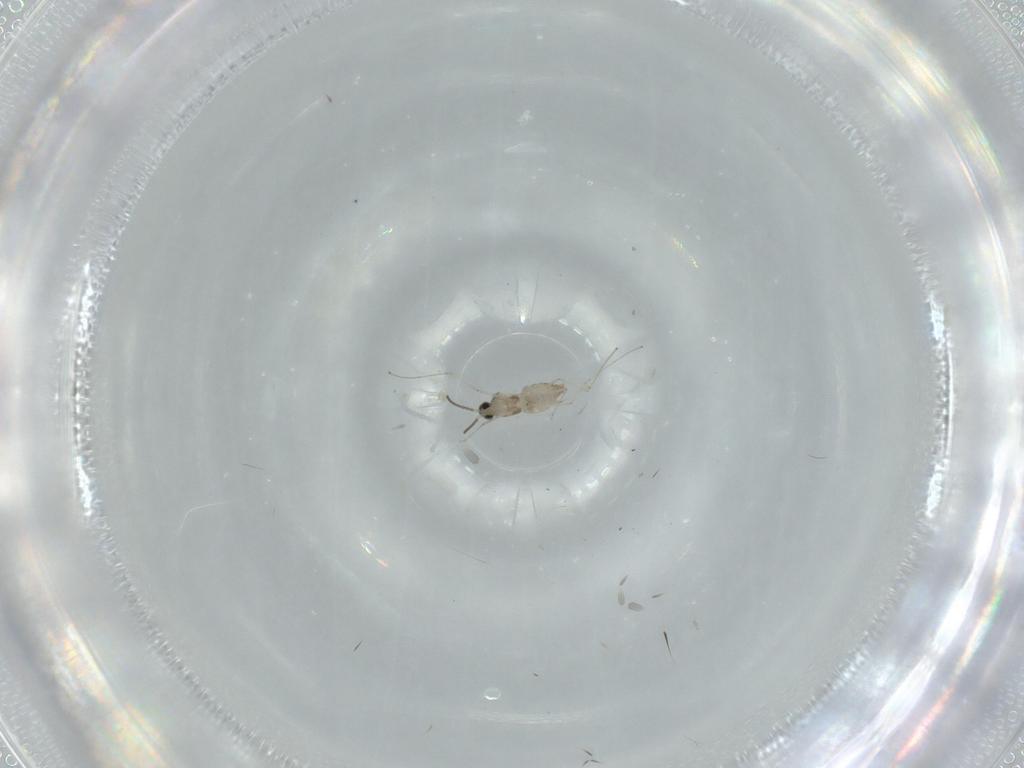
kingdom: Animalia
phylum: Arthropoda
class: Insecta
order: Diptera
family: Cecidomyiidae
